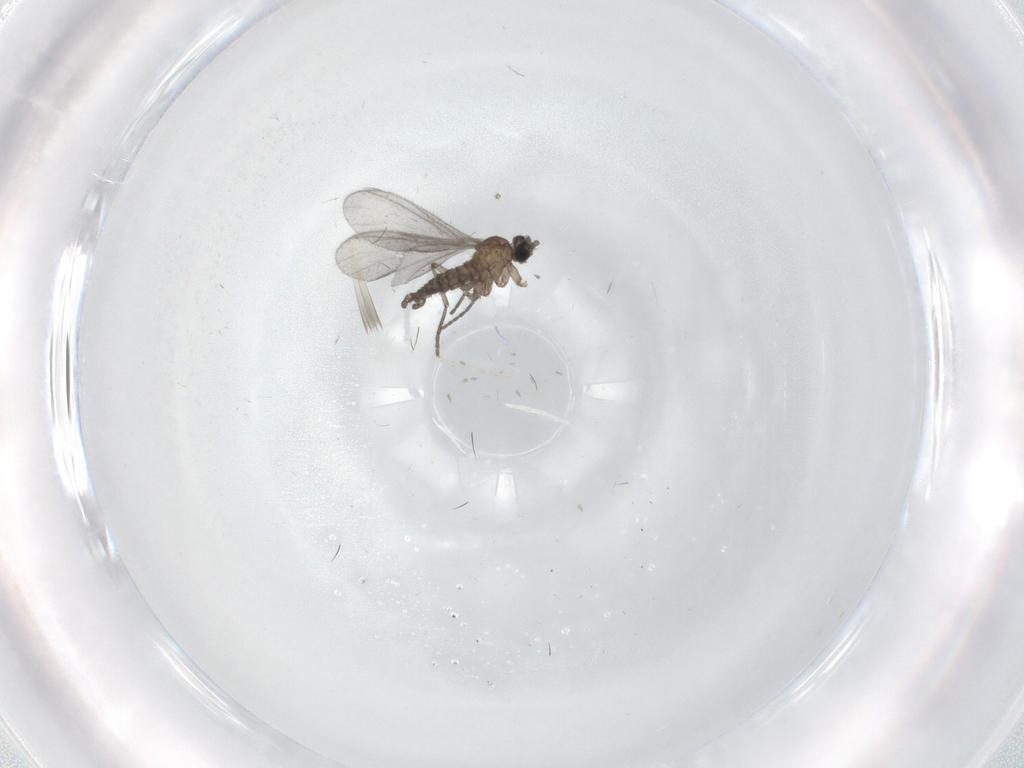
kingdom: Animalia
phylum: Arthropoda
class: Insecta
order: Diptera
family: Sciaridae
